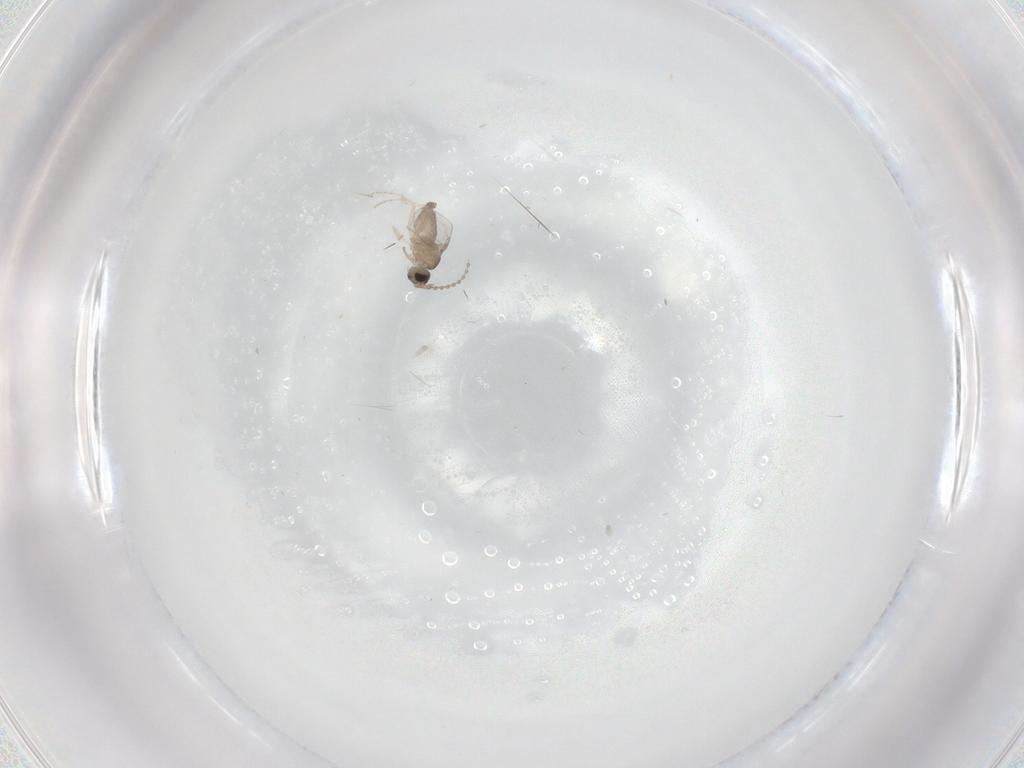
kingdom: Animalia
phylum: Arthropoda
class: Insecta
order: Diptera
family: Cecidomyiidae
